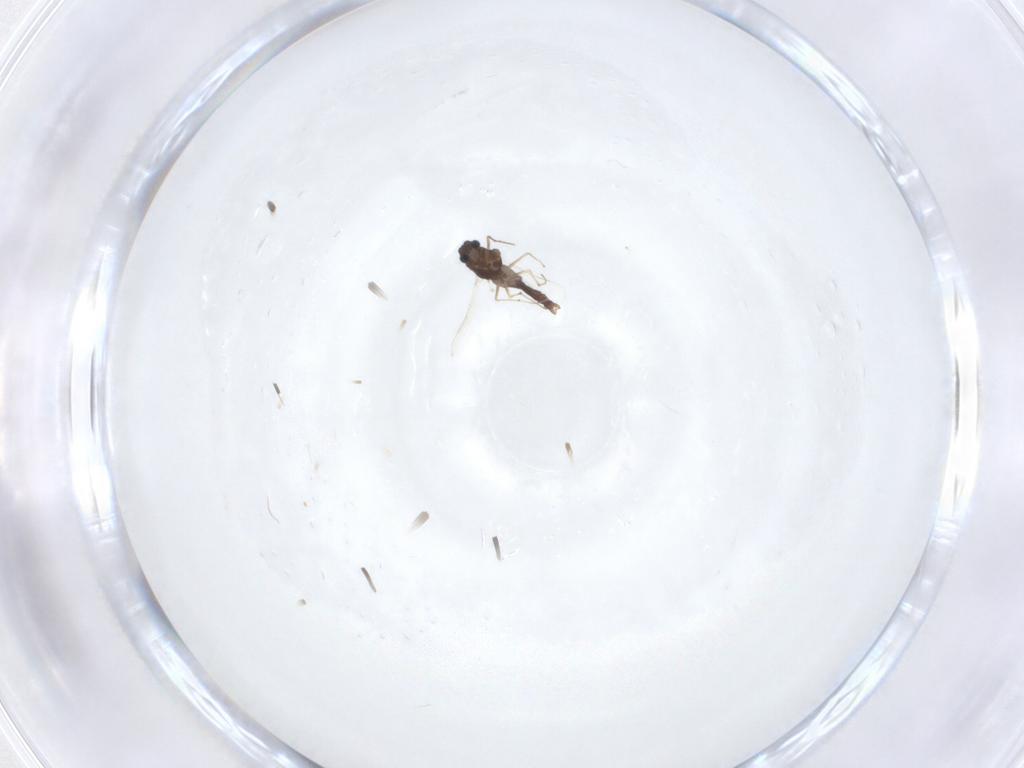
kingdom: Animalia
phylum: Arthropoda
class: Insecta
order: Diptera
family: Chironomidae
